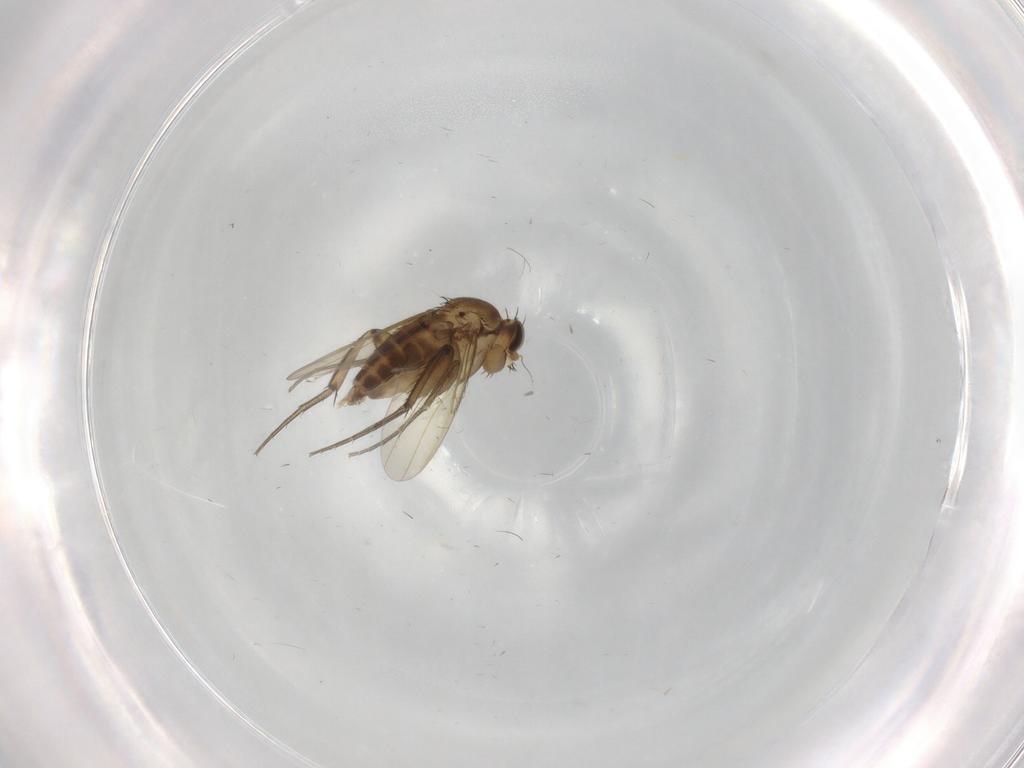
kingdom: Animalia
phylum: Arthropoda
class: Insecta
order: Diptera
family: Phoridae
